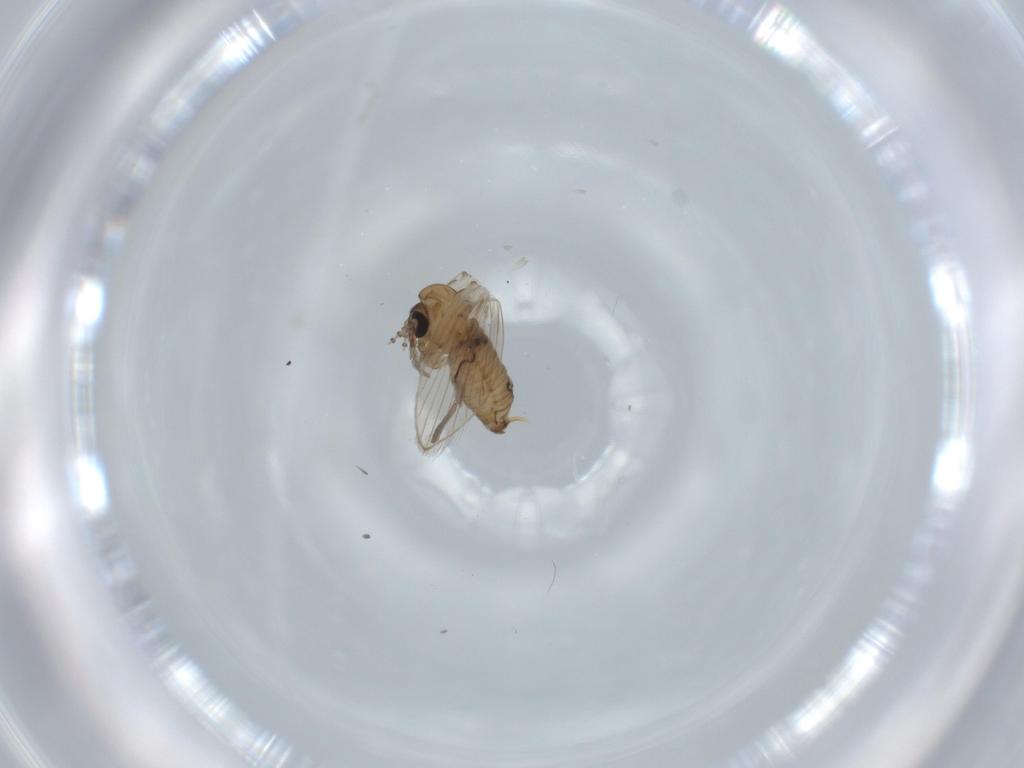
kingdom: Animalia
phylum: Arthropoda
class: Insecta
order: Diptera
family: Psychodidae
